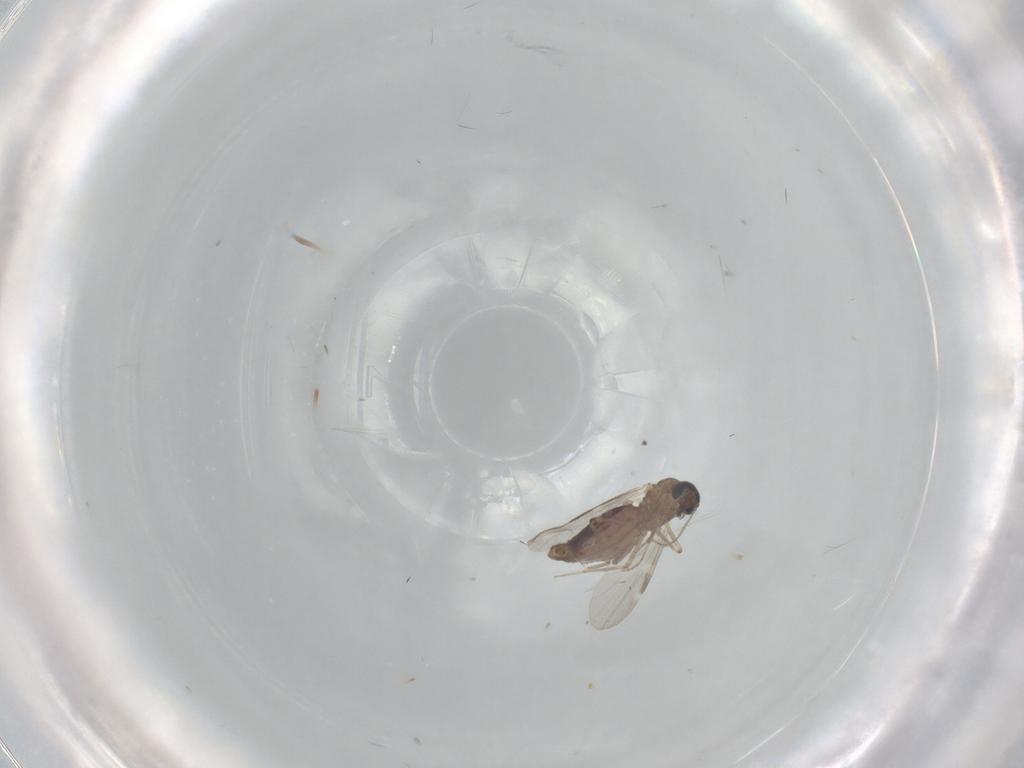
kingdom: Animalia
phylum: Arthropoda
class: Insecta
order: Diptera
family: Ceratopogonidae
